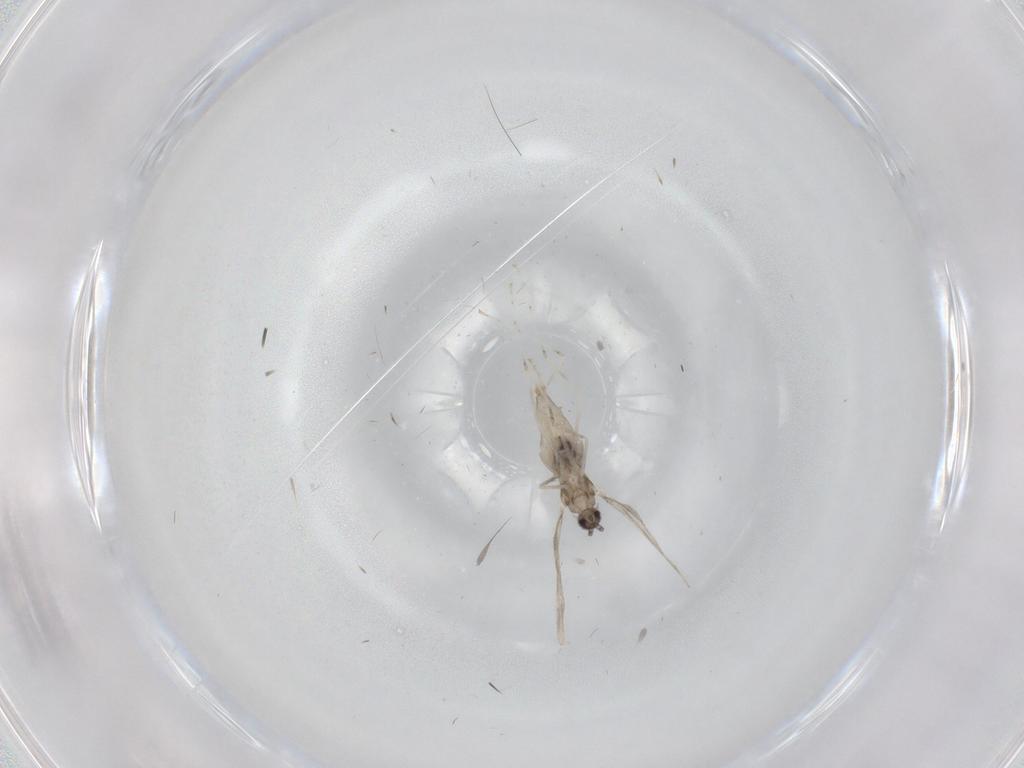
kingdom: Animalia
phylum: Arthropoda
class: Insecta
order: Diptera
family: Cecidomyiidae
